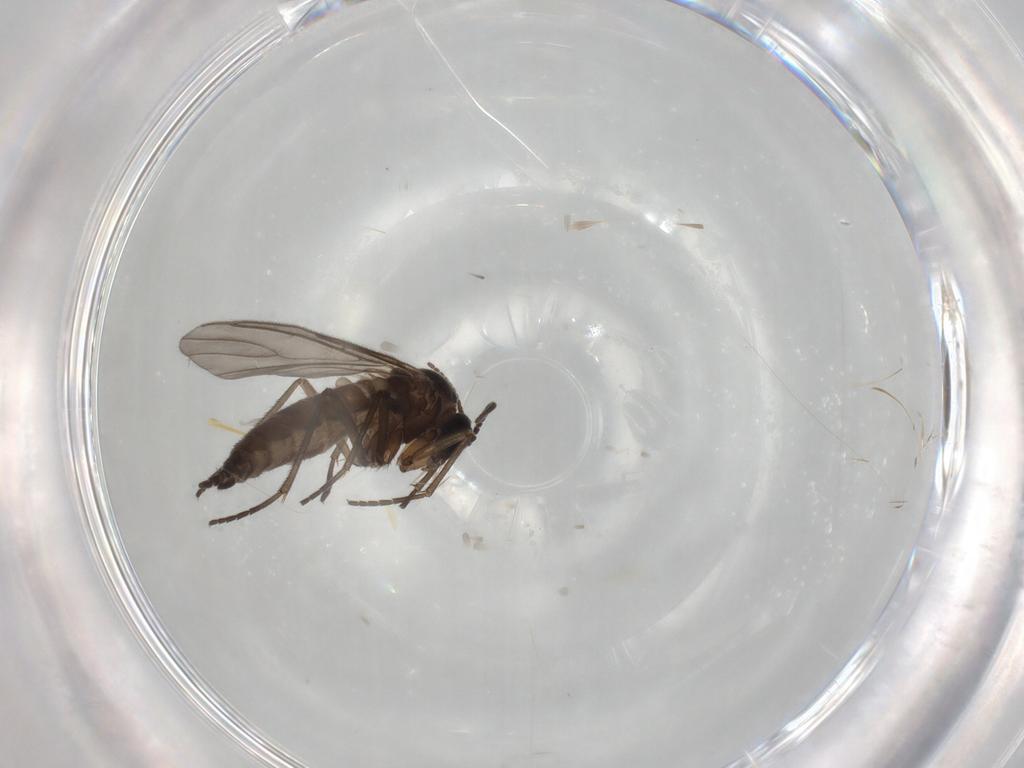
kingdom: Animalia
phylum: Arthropoda
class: Insecta
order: Diptera
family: Sciaridae
